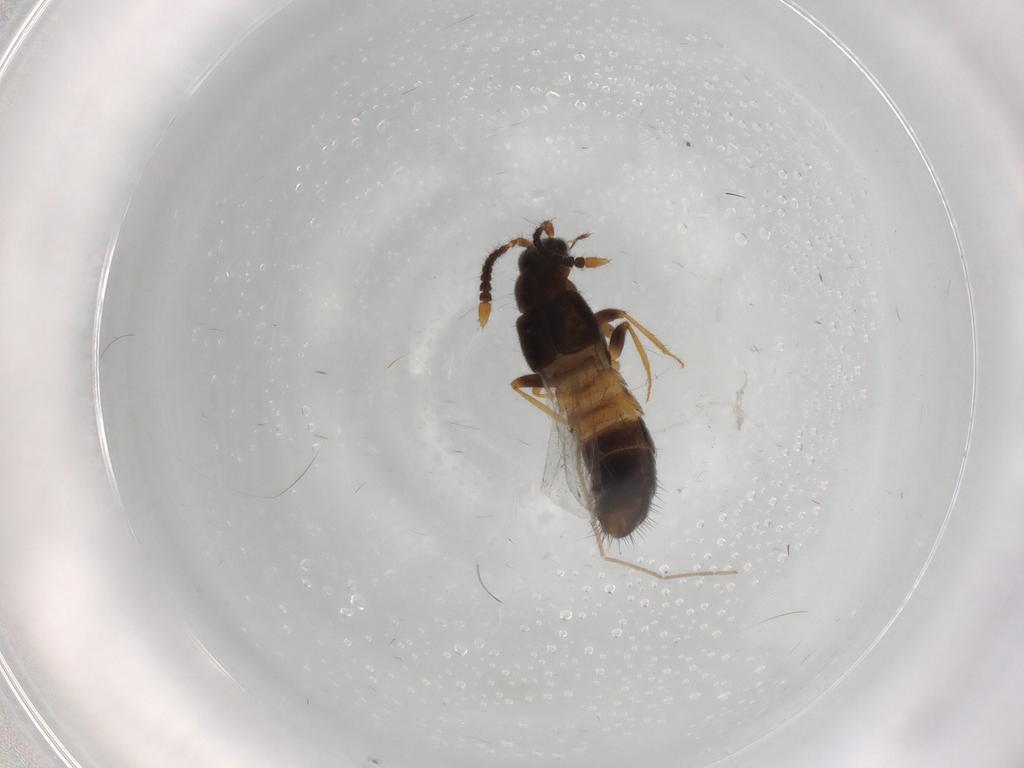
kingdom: Animalia
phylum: Arthropoda
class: Insecta
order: Coleoptera
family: Staphylinidae
